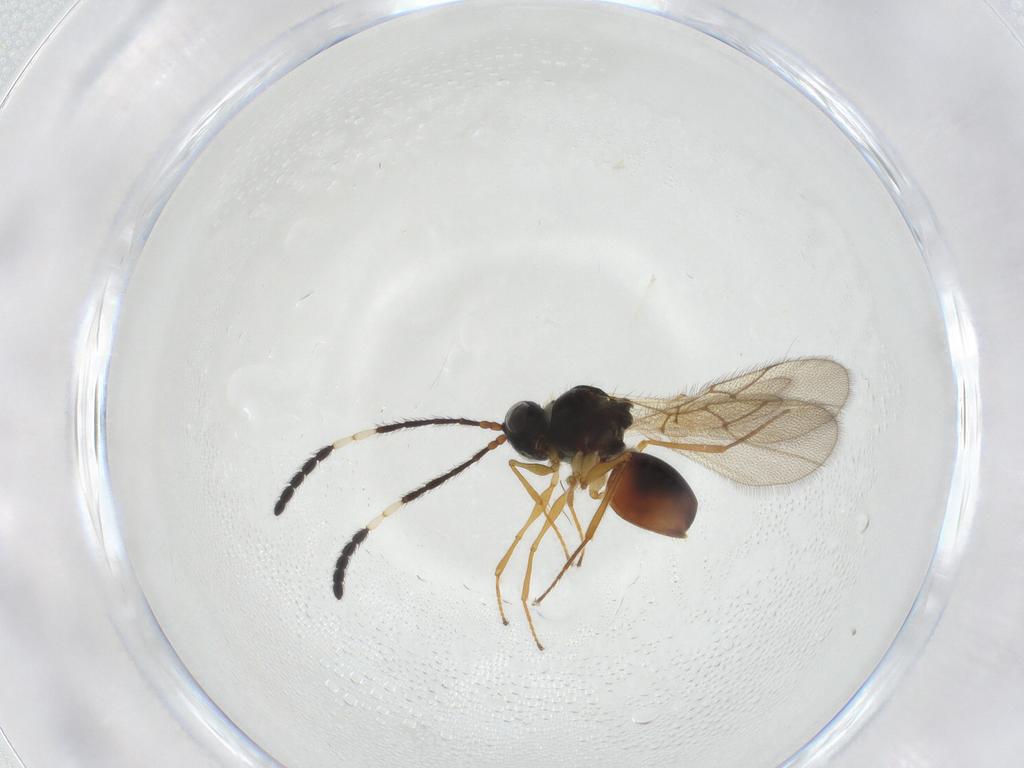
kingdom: Animalia
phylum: Arthropoda
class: Insecta
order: Hymenoptera
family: Figitidae
